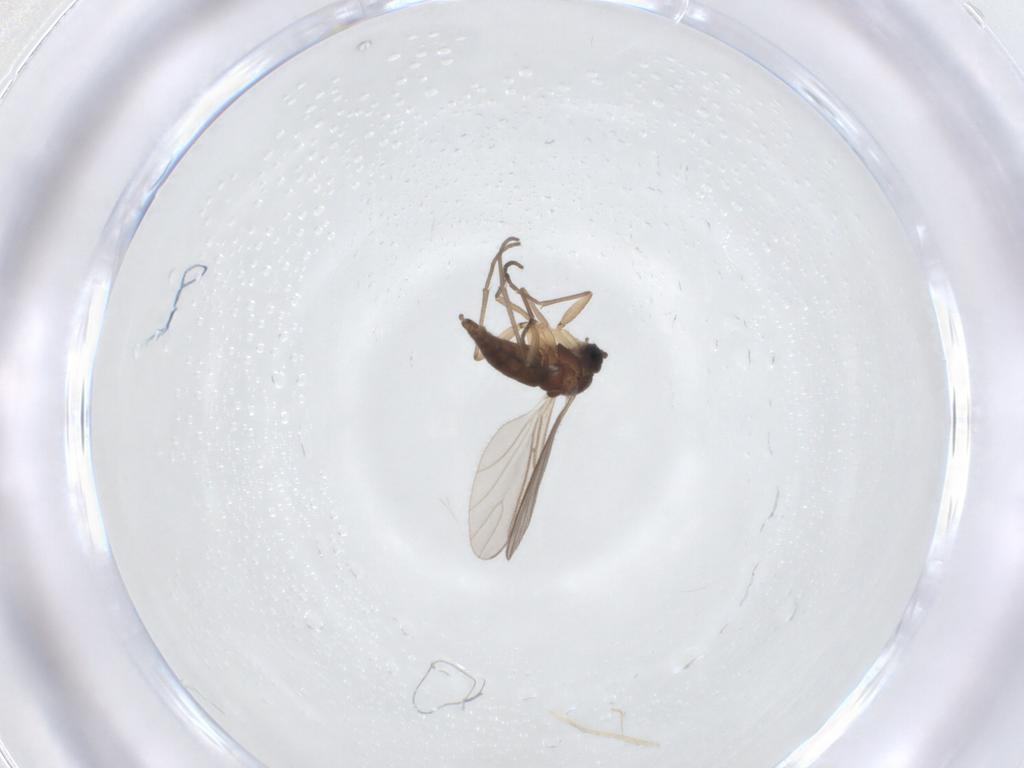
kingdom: Animalia
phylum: Arthropoda
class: Insecta
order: Diptera
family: Sciaridae
